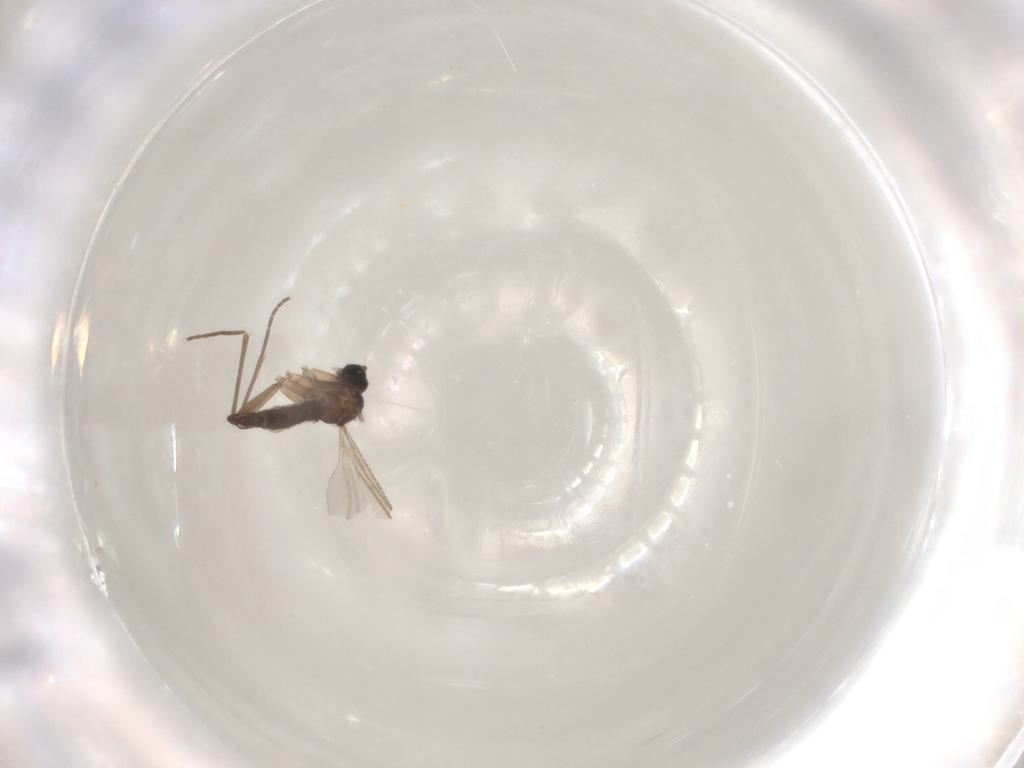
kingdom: Animalia
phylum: Arthropoda
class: Insecta
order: Diptera
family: Sciaridae
